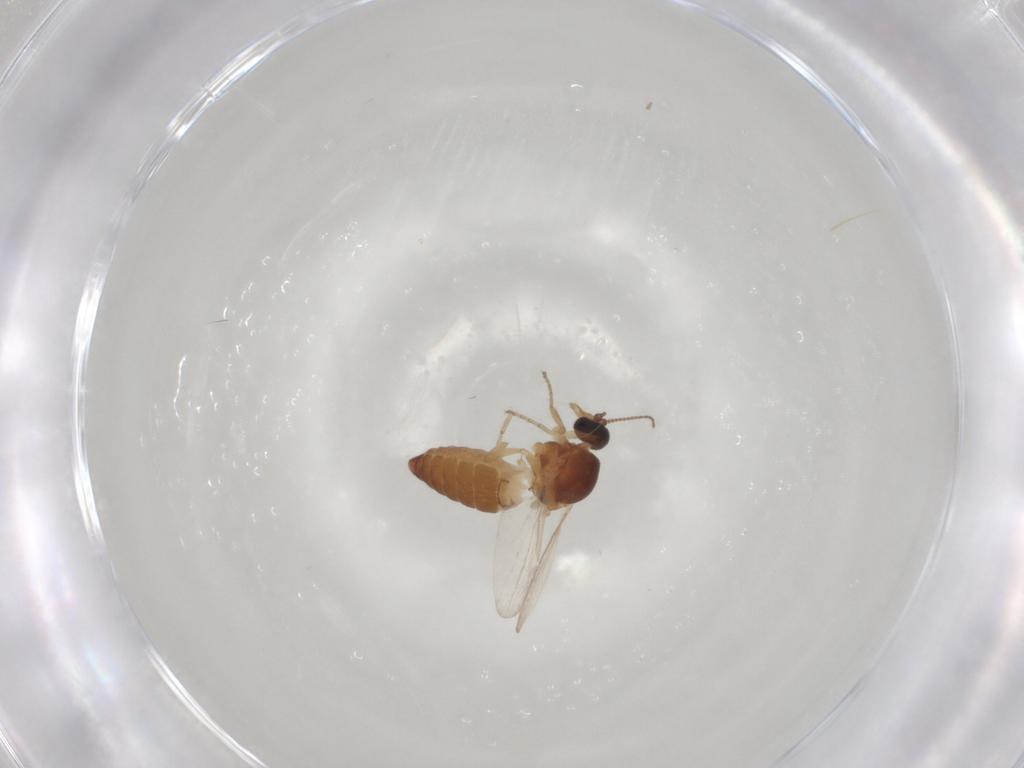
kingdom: Animalia
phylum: Arthropoda
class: Insecta
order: Diptera
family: Ceratopogonidae
